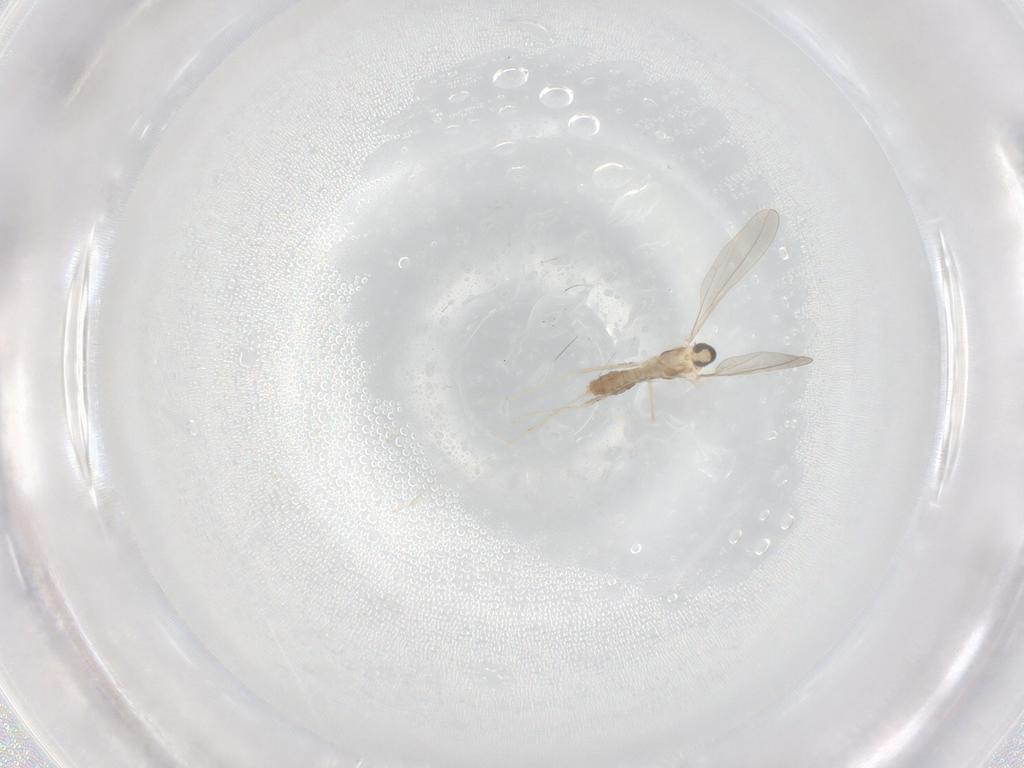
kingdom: Animalia
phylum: Arthropoda
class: Insecta
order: Diptera
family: Cecidomyiidae
